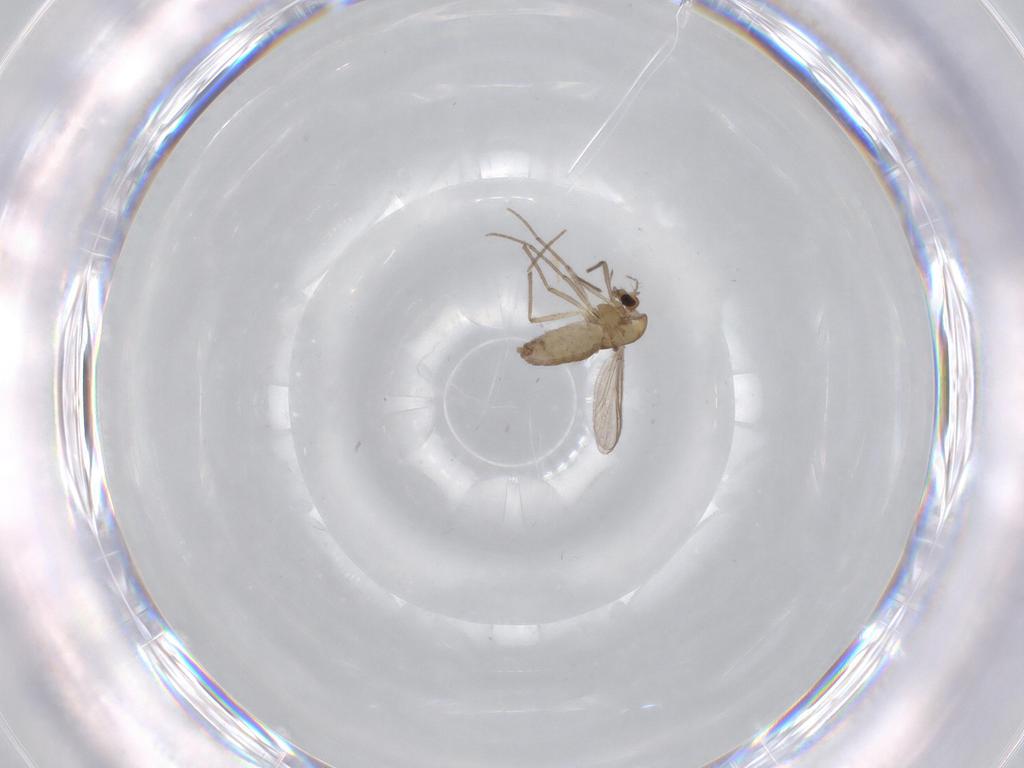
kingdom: Animalia
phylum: Arthropoda
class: Insecta
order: Diptera
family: Chironomidae
